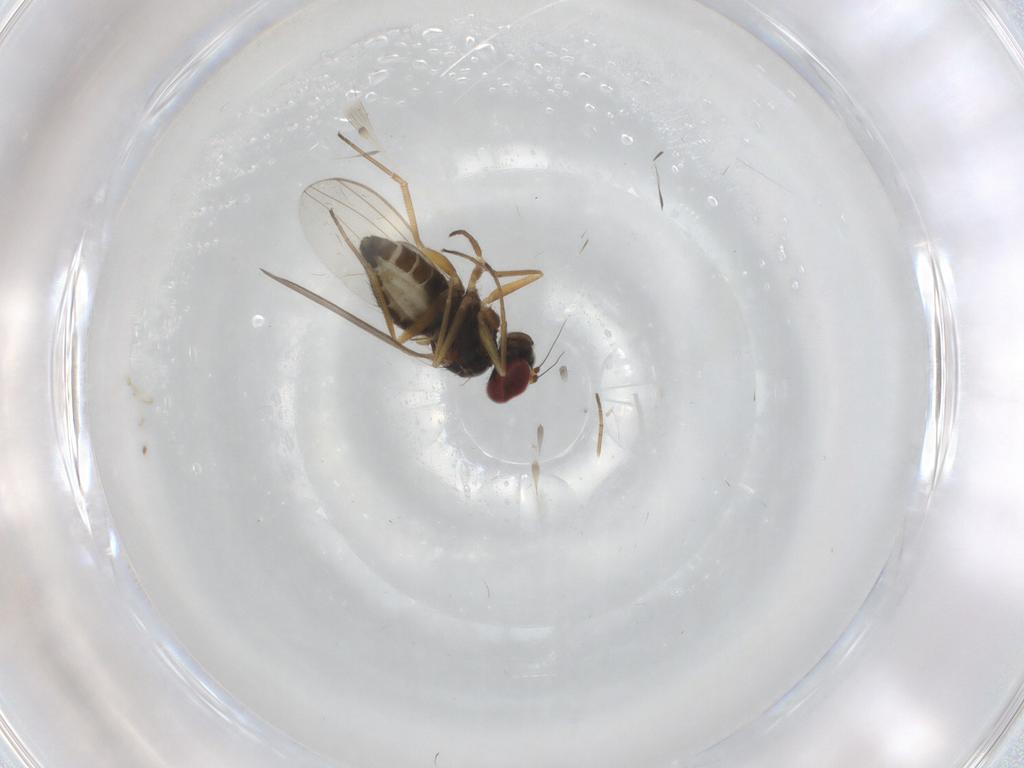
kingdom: Animalia
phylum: Arthropoda
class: Insecta
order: Diptera
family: Dolichopodidae
